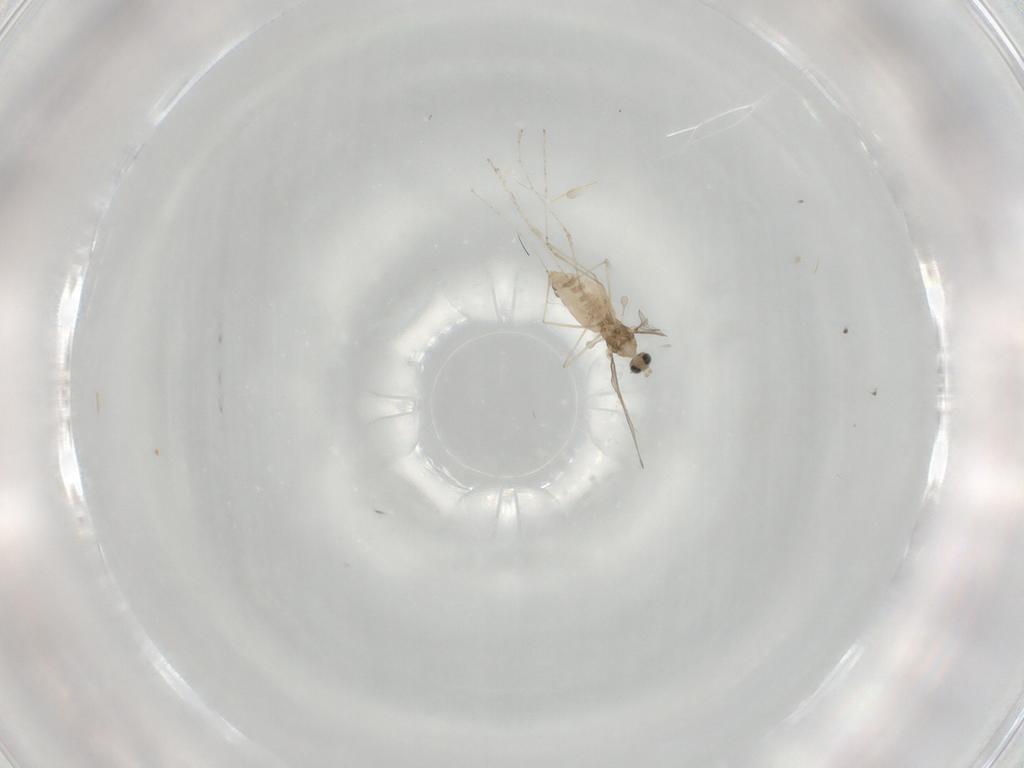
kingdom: Animalia
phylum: Arthropoda
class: Insecta
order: Diptera
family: Cecidomyiidae
